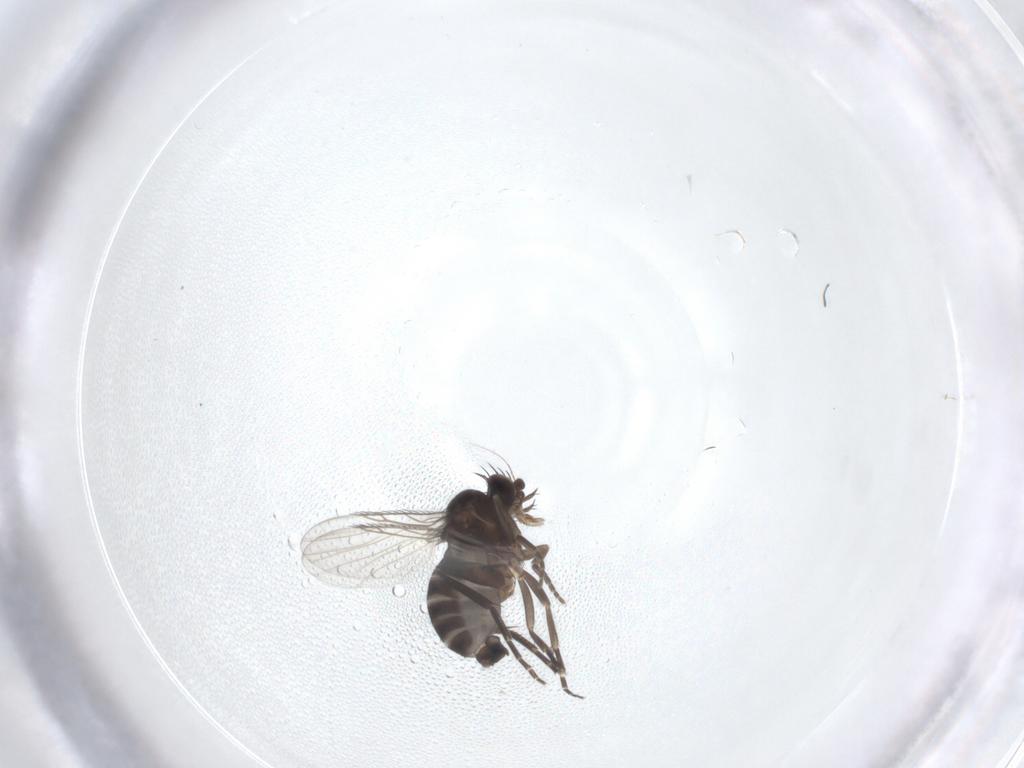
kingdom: Animalia
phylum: Arthropoda
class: Insecta
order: Diptera
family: Phoridae
